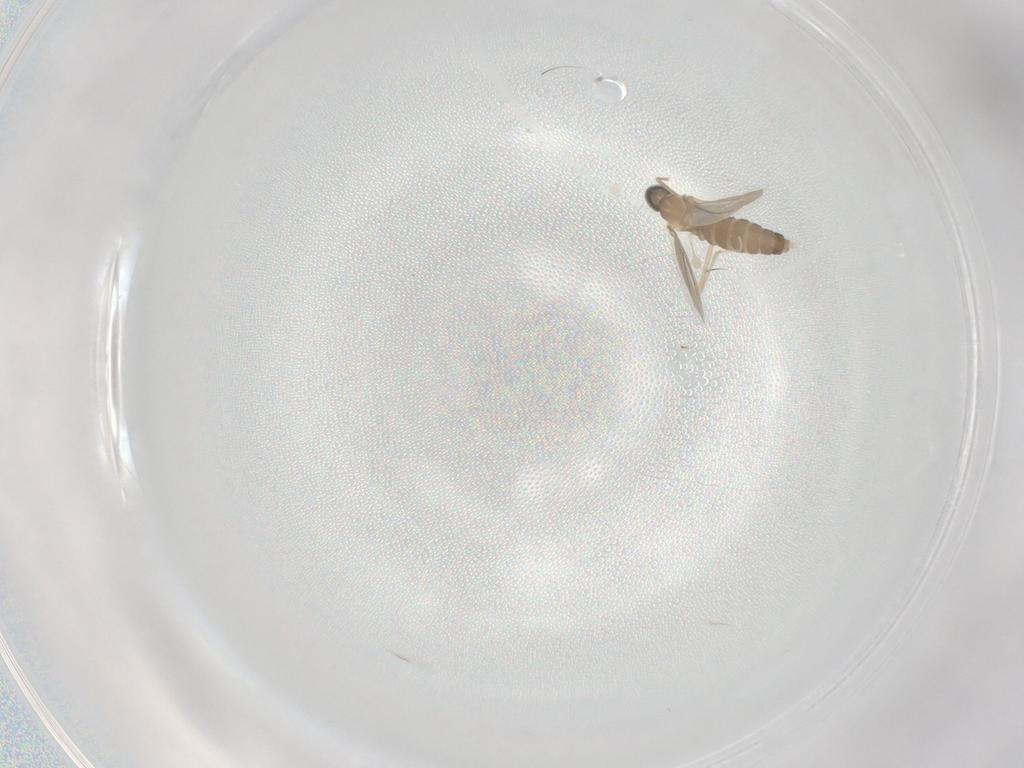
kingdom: Animalia
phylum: Arthropoda
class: Insecta
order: Diptera
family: Cecidomyiidae
